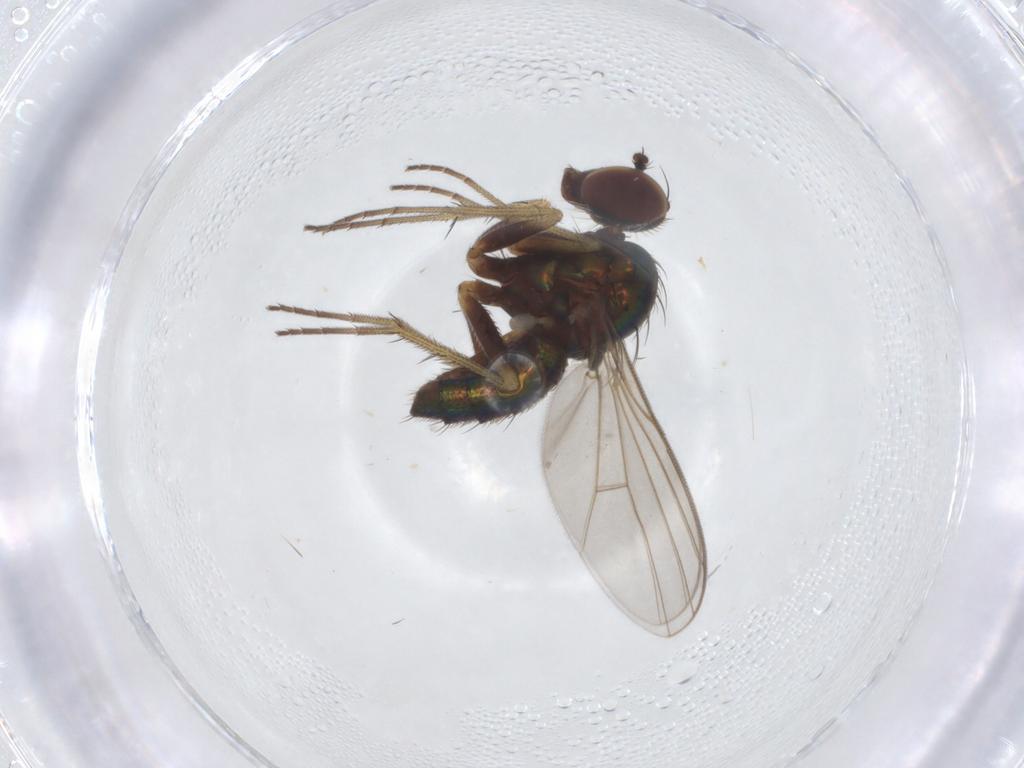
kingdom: Animalia
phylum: Arthropoda
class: Insecta
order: Diptera
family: Dolichopodidae
